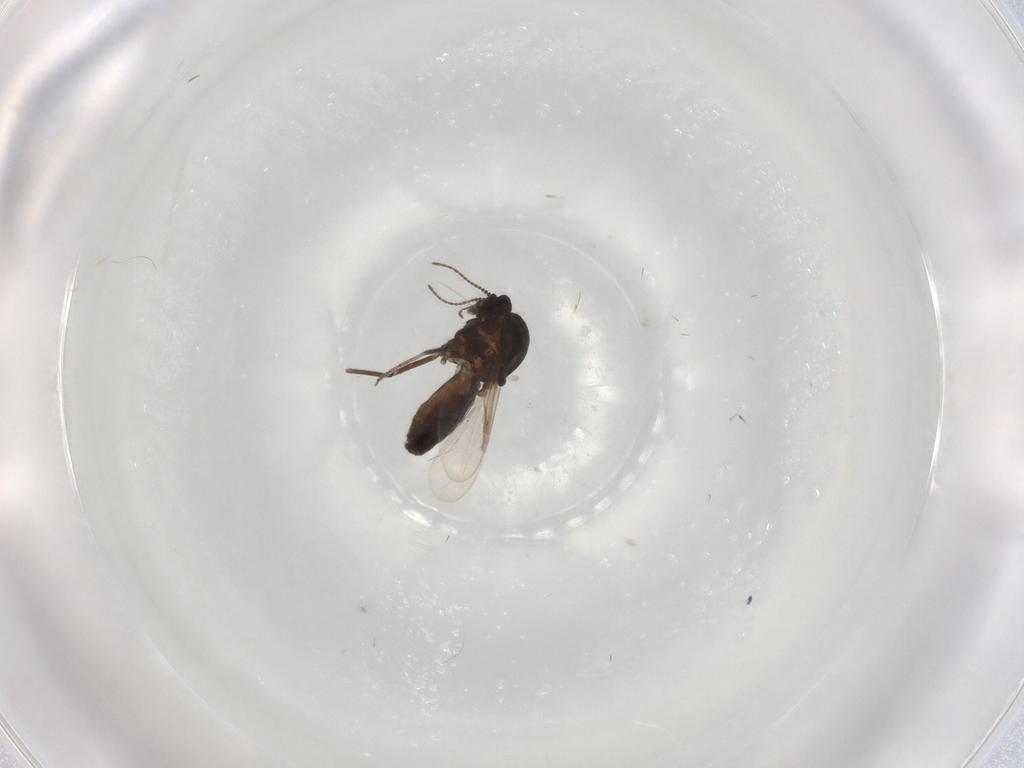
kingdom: Animalia
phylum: Arthropoda
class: Insecta
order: Diptera
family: Ceratopogonidae
